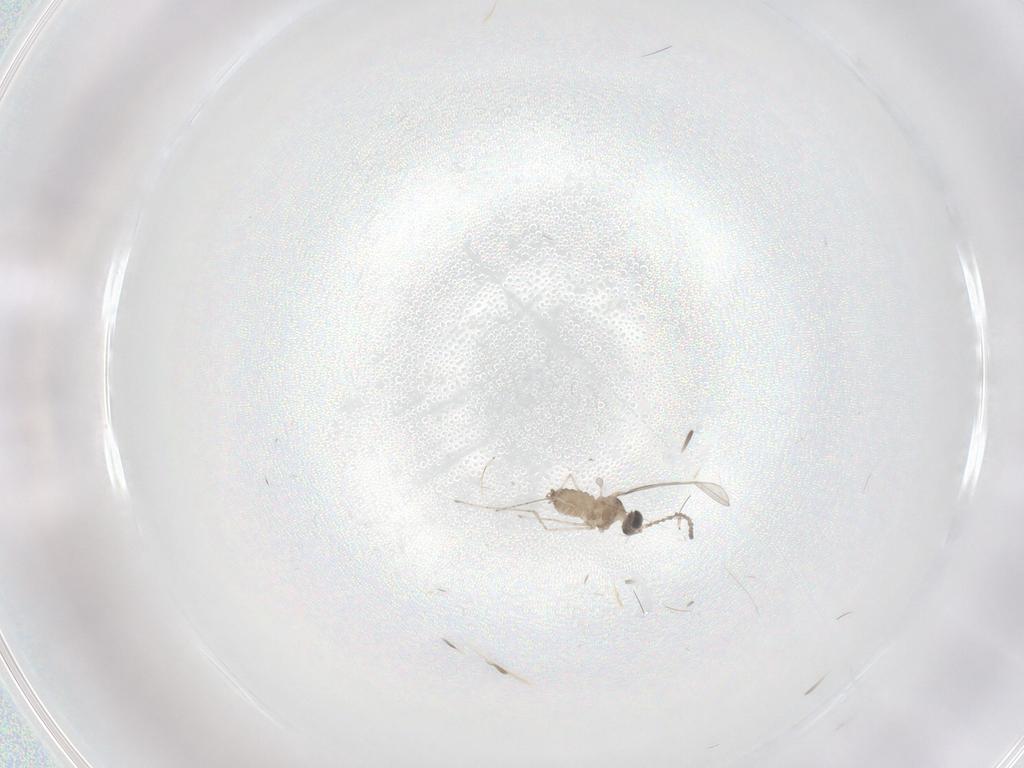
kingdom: Animalia
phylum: Arthropoda
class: Insecta
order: Diptera
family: Cecidomyiidae
